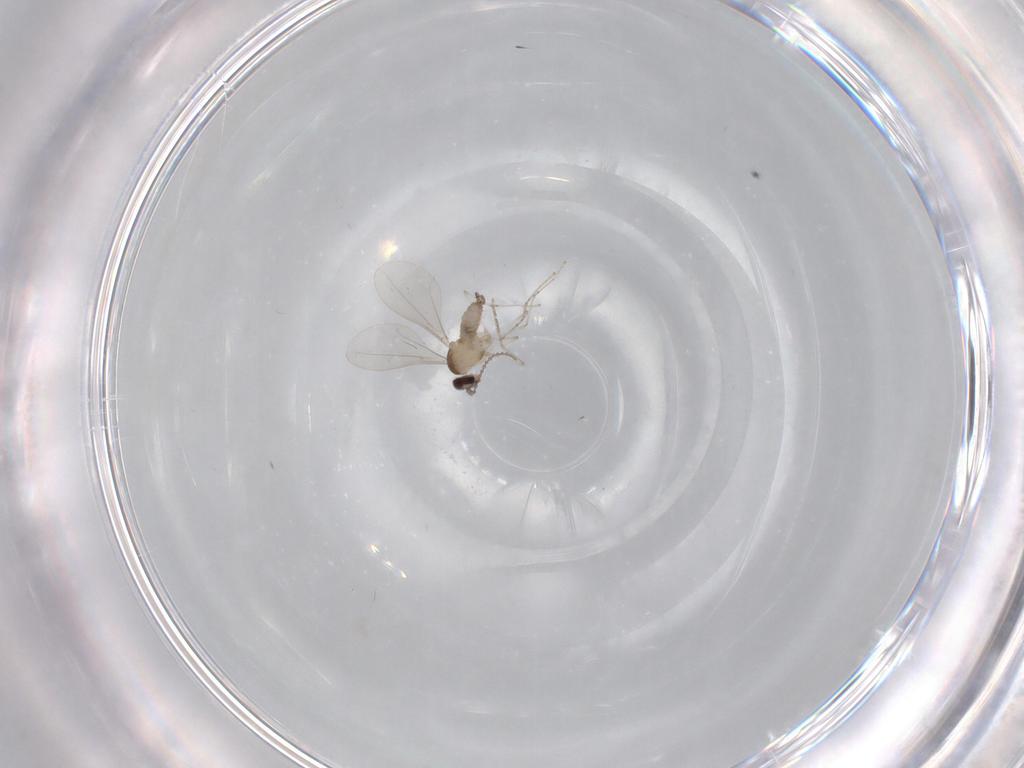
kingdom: Animalia
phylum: Arthropoda
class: Insecta
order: Diptera
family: Cecidomyiidae
